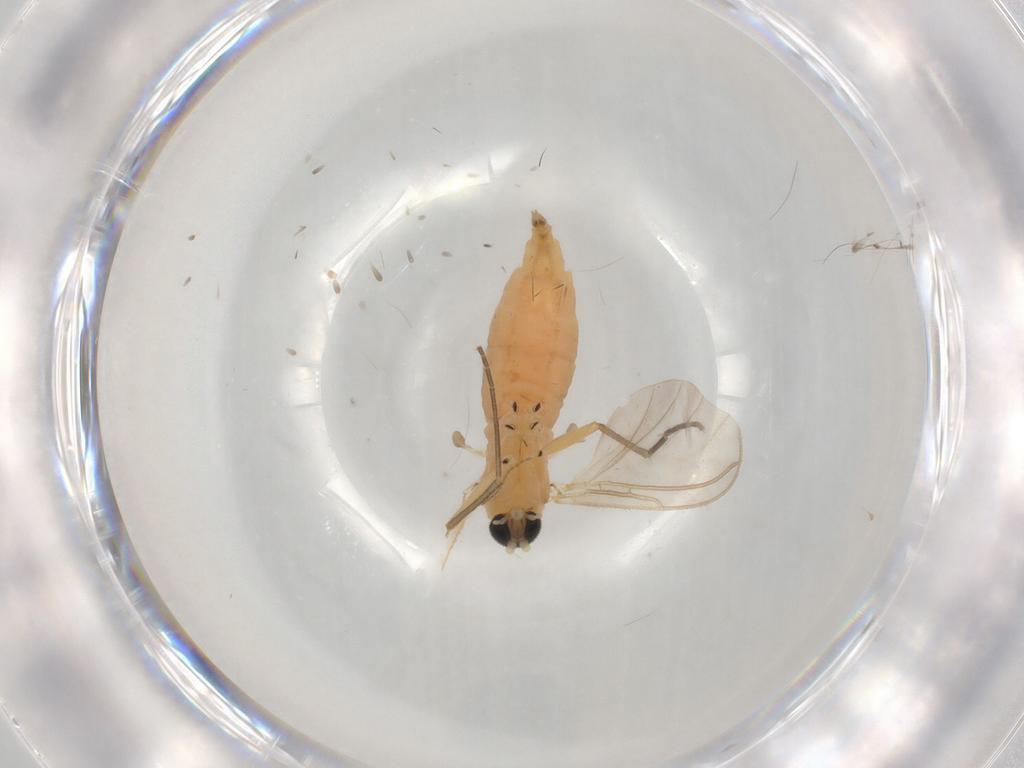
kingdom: Animalia
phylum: Arthropoda
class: Insecta
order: Diptera
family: Sciaridae
